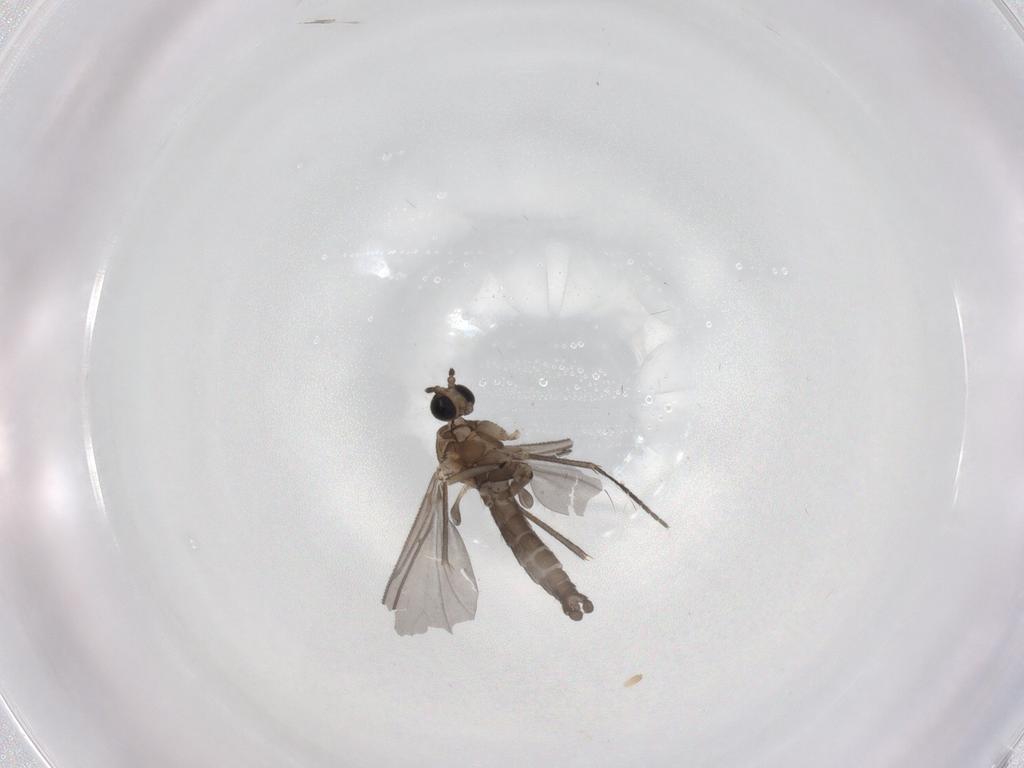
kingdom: Animalia
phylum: Arthropoda
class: Insecta
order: Diptera
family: Sciaridae
